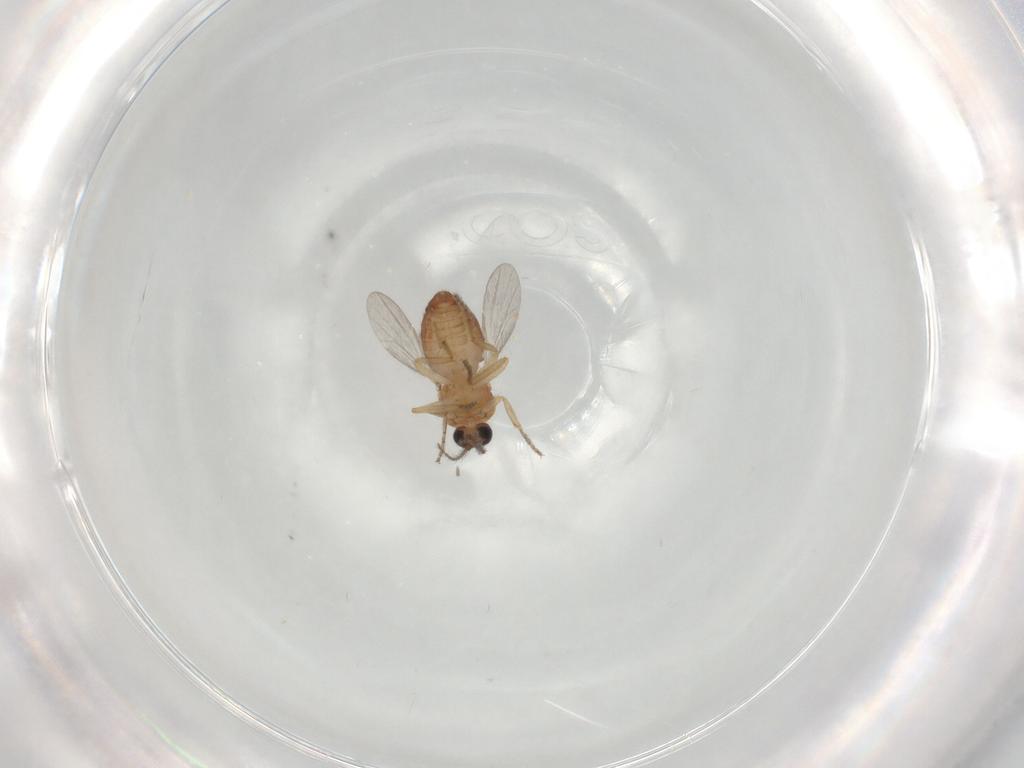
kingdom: Animalia
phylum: Arthropoda
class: Insecta
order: Diptera
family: Ceratopogonidae
